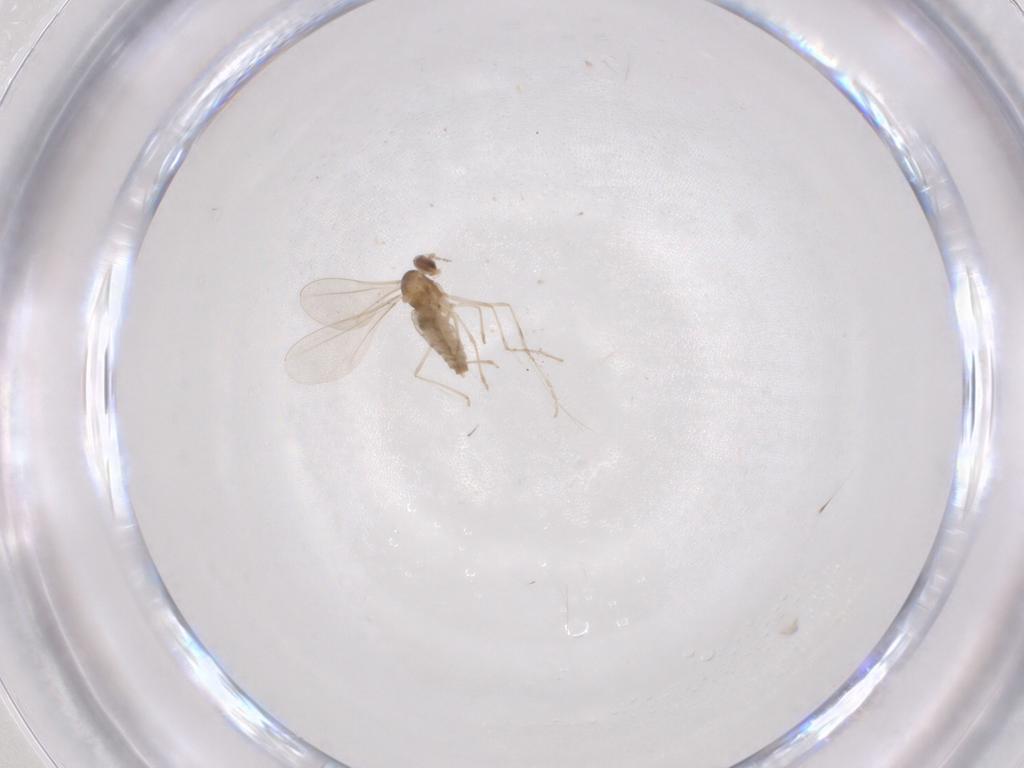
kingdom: Animalia
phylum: Arthropoda
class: Insecta
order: Diptera
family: Cecidomyiidae
